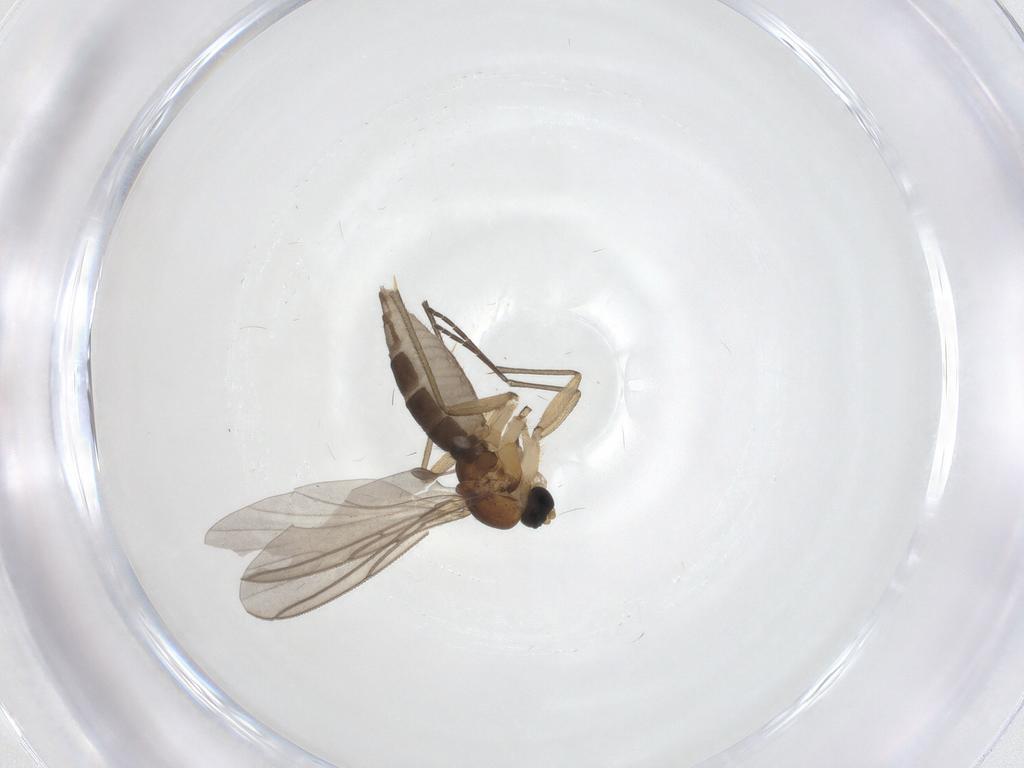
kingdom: Animalia
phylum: Arthropoda
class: Insecta
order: Diptera
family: Sciaridae
